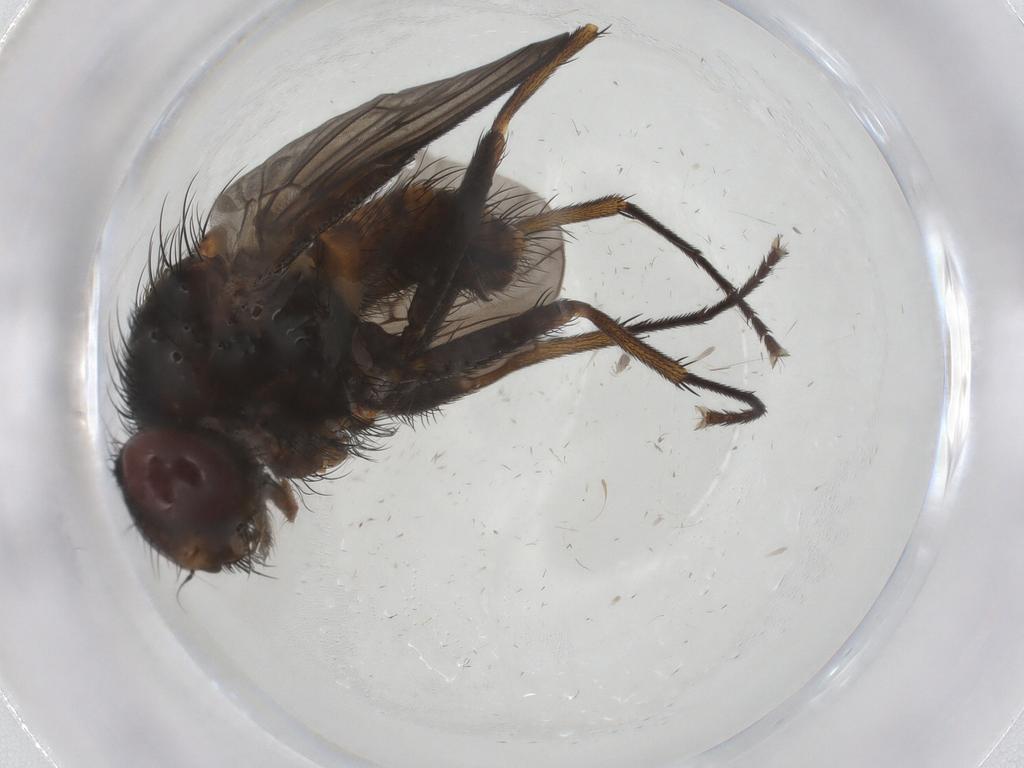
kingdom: Animalia
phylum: Arthropoda
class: Insecta
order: Diptera
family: Muscidae
